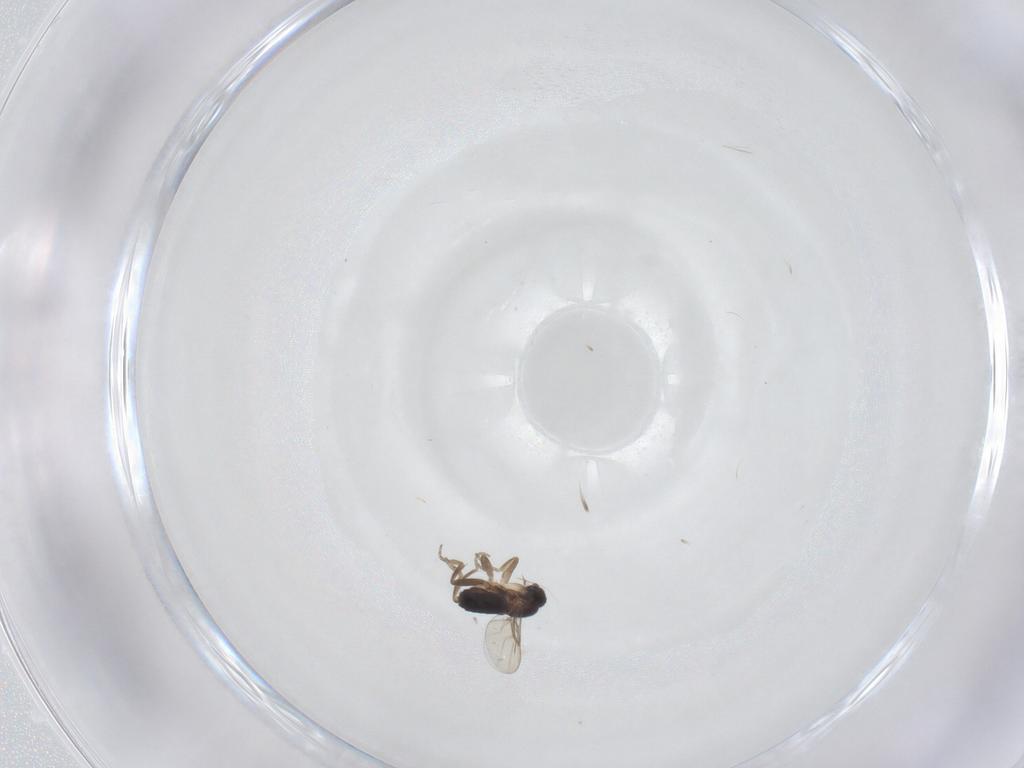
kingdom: Animalia
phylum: Arthropoda
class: Insecta
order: Diptera
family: Phoridae
